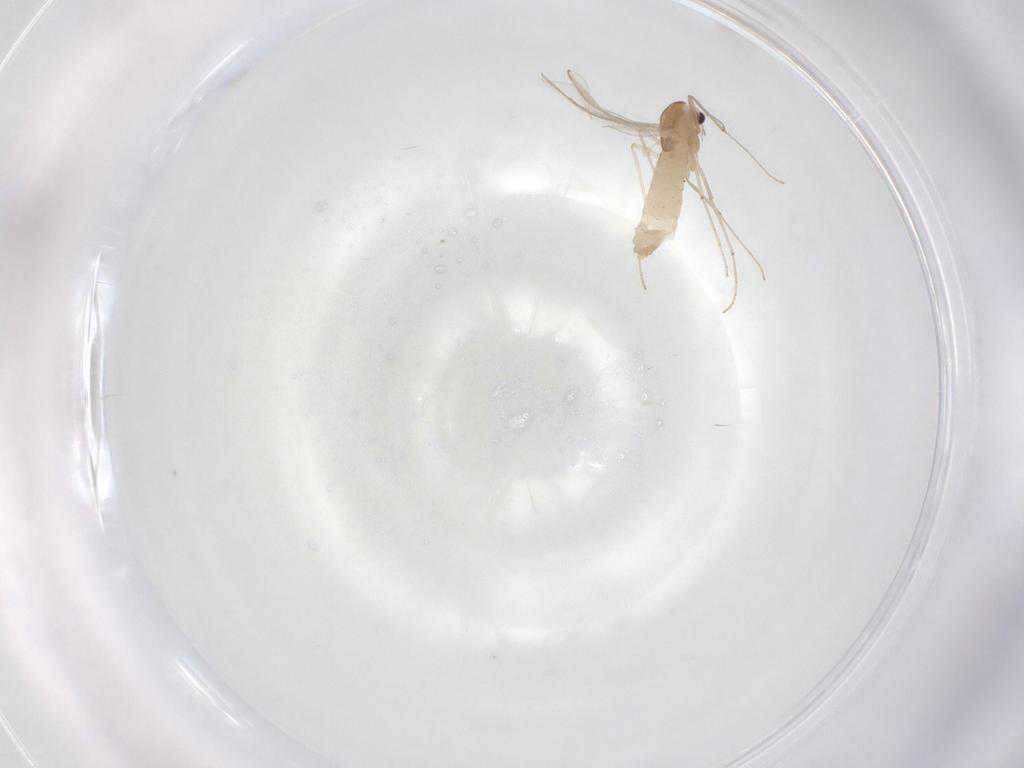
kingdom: Animalia
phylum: Arthropoda
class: Insecta
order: Diptera
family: Chironomidae
